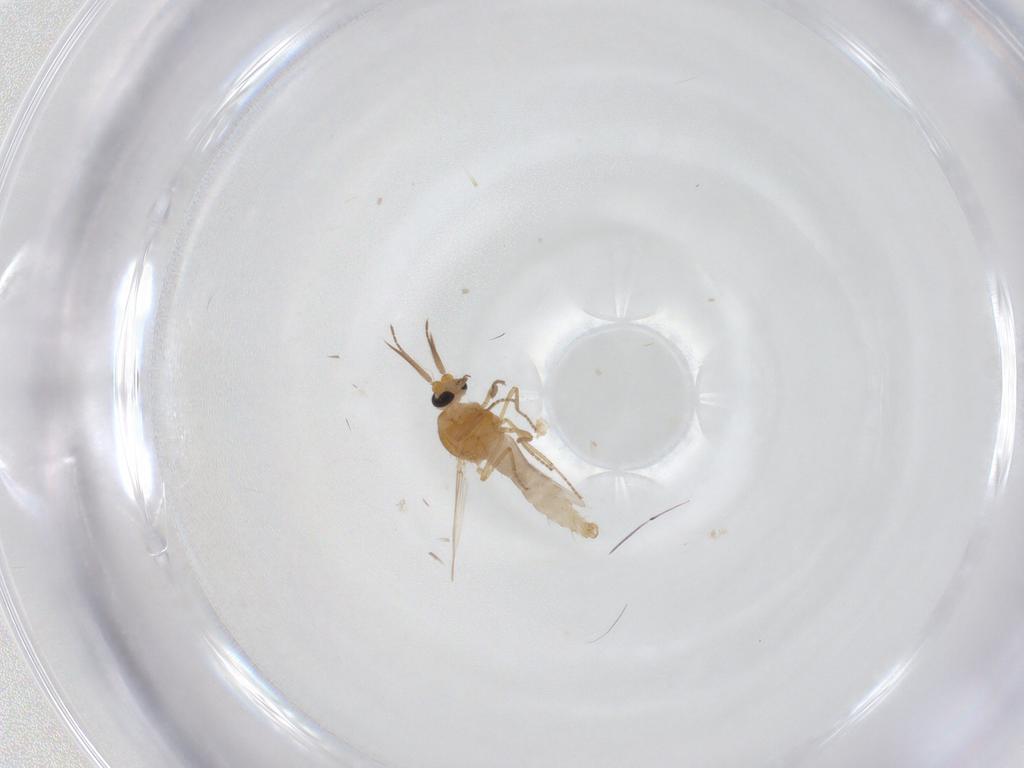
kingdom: Animalia
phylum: Arthropoda
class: Insecta
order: Diptera
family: Ceratopogonidae
